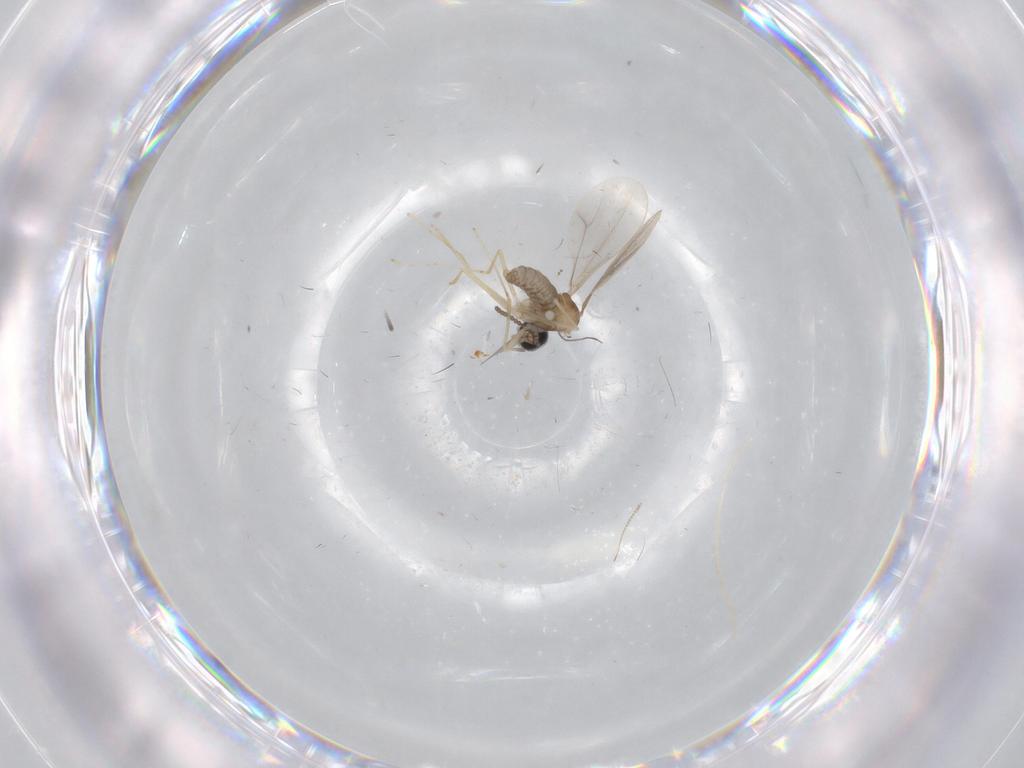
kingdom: Animalia
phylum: Arthropoda
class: Insecta
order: Diptera
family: Cecidomyiidae
